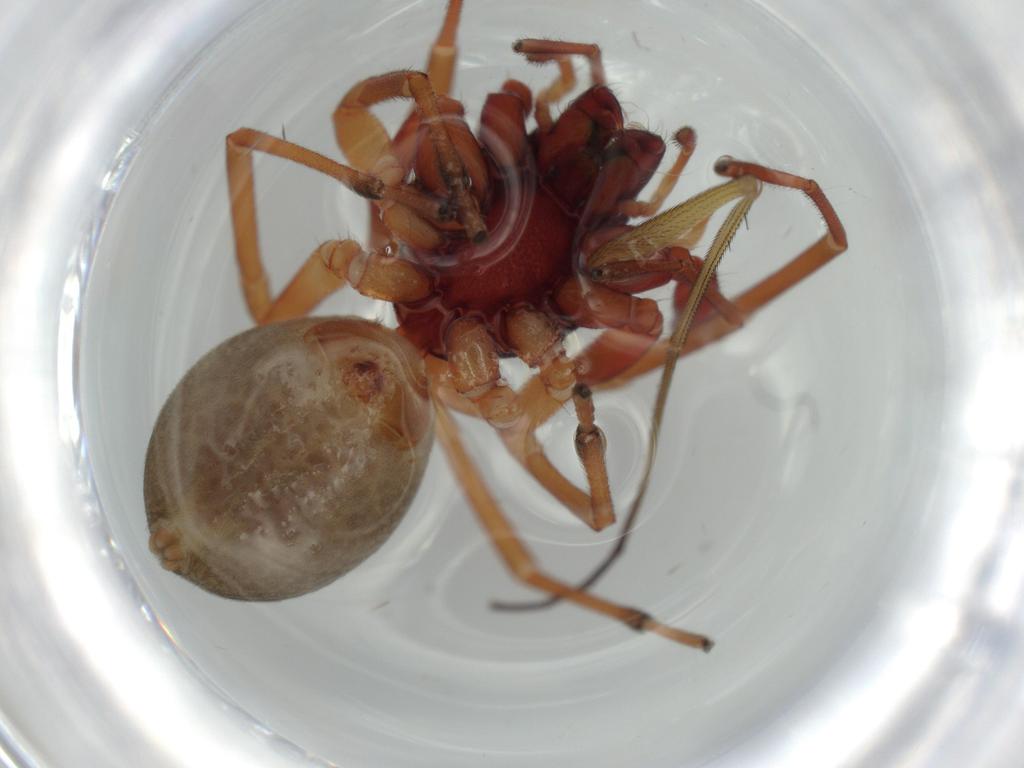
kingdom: Animalia
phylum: Arthropoda
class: Arachnida
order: Araneae
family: Trachelidae
